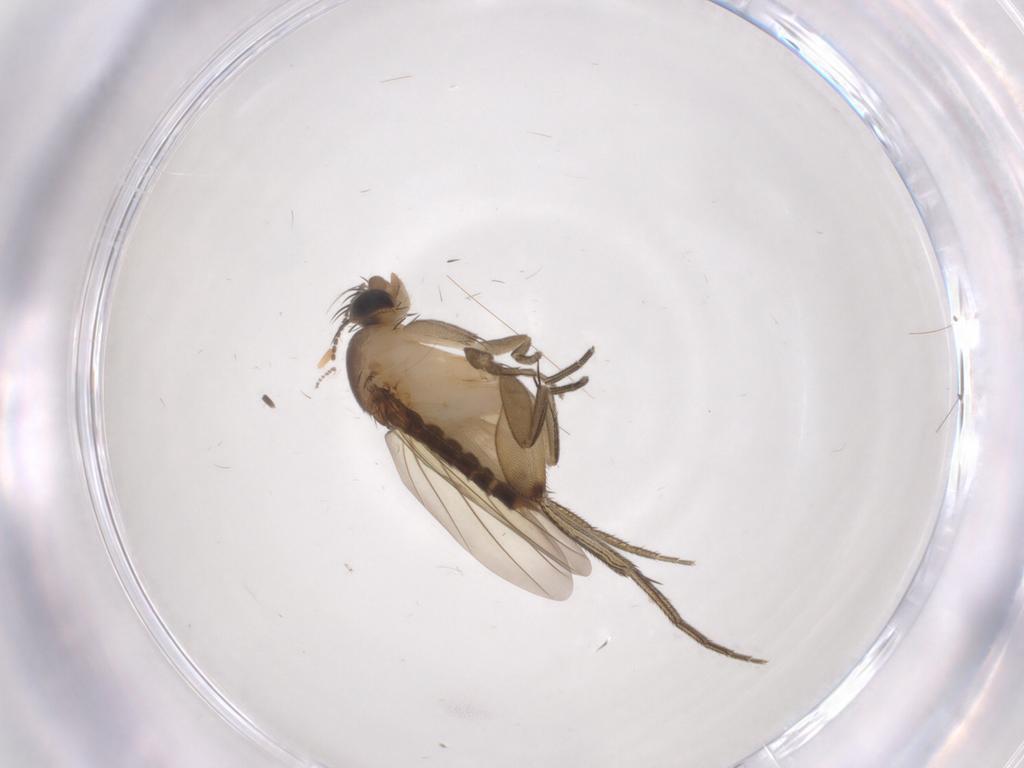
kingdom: Animalia
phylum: Arthropoda
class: Insecta
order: Diptera
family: Phoridae
